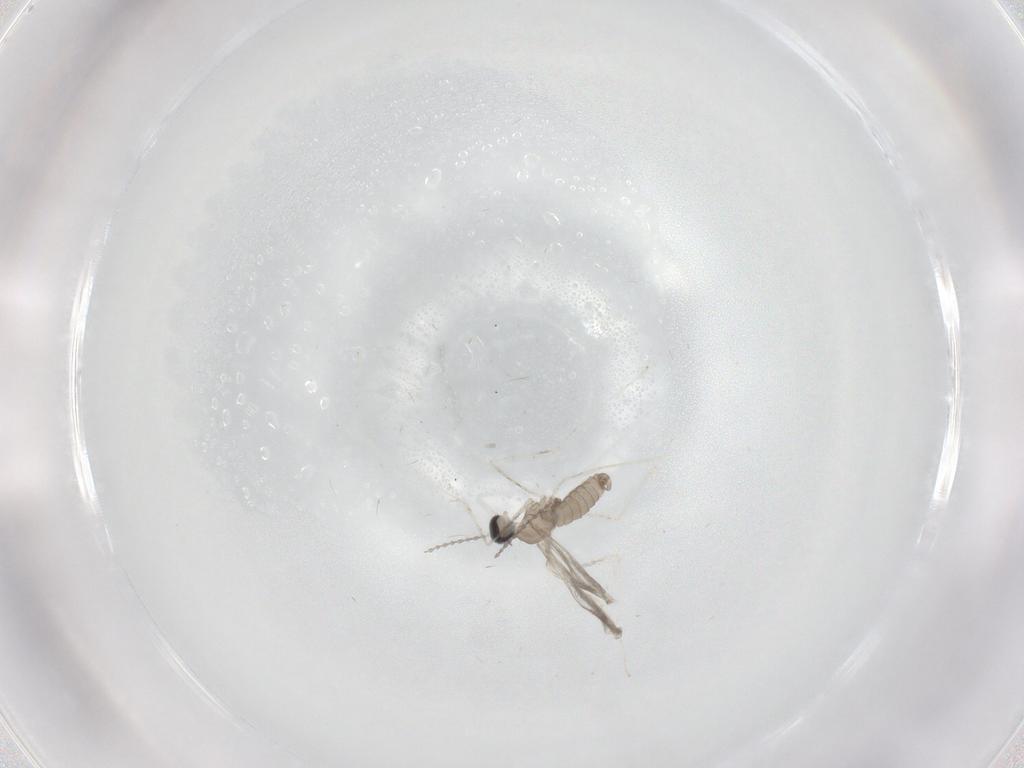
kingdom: Animalia
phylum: Arthropoda
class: Insecta
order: Diptera
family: Cecidomyiidae
